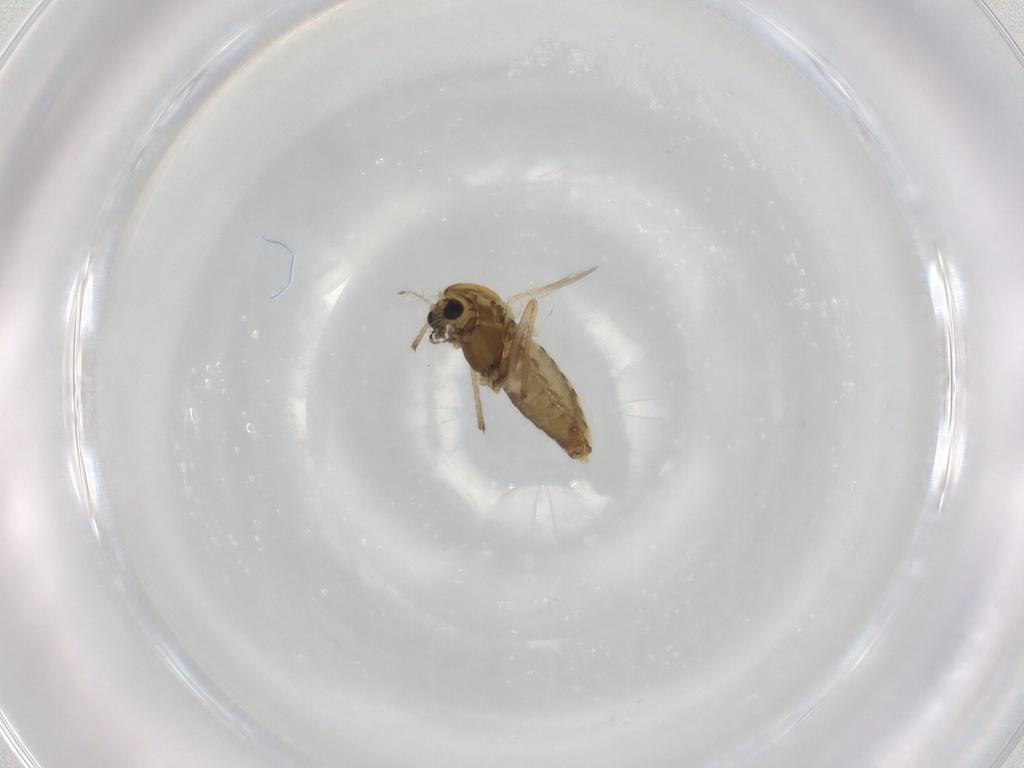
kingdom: Animalia
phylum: Arthropoda
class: Insecta
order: Diptera
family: Chironomidae
